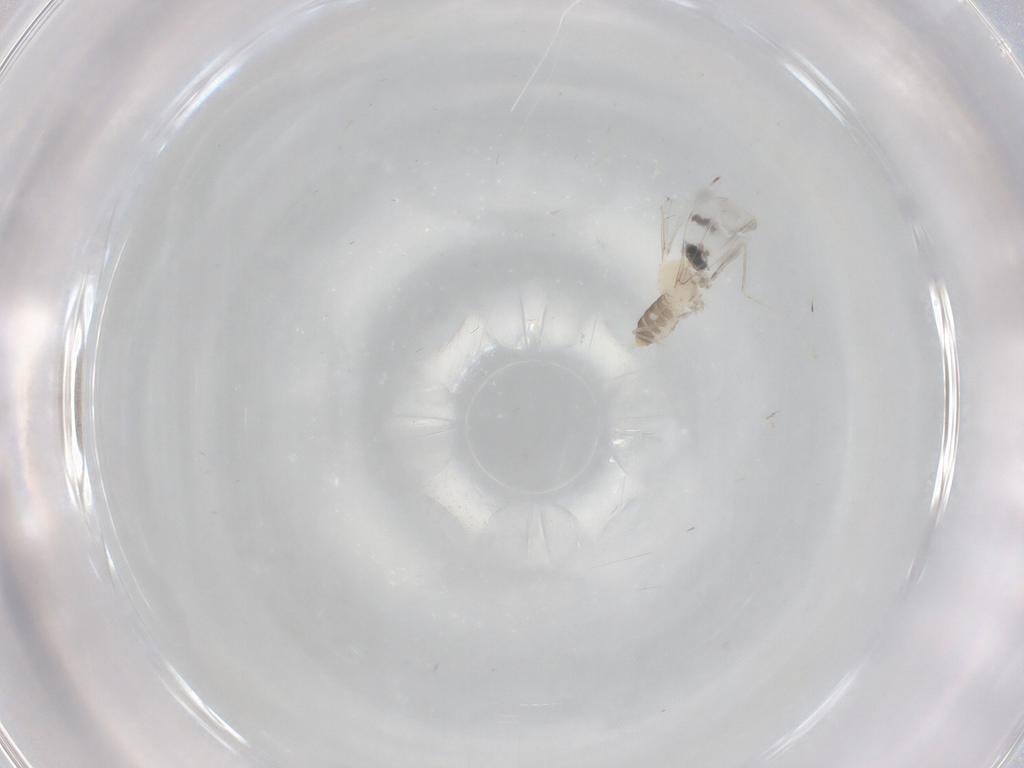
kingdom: Animalia
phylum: Arthropoda
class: Insecta
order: Diptera
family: Cecidomyiidae
